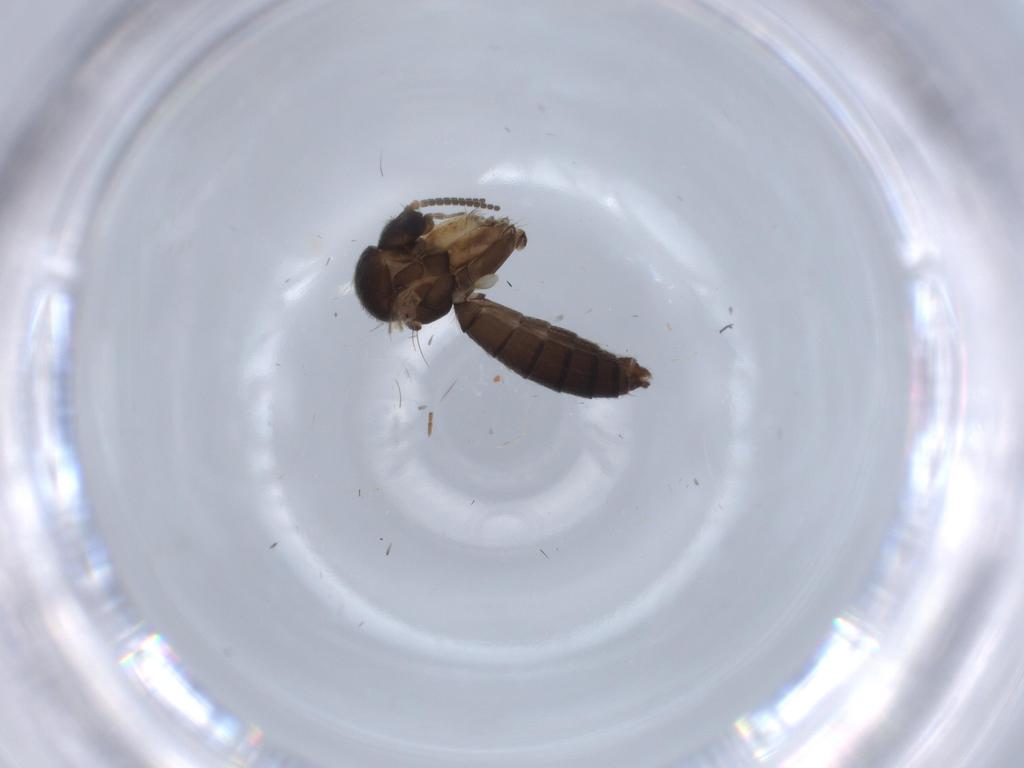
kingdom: Animalia
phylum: Arthropoda
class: Insecta
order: Diptera
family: Mycetophilidae
